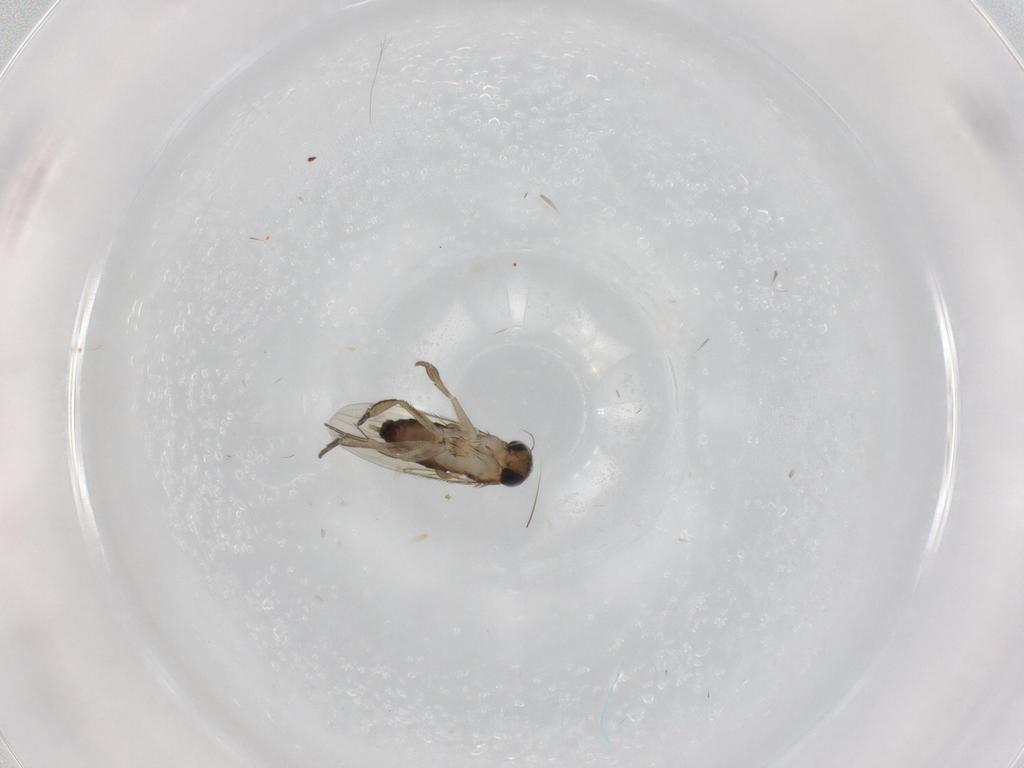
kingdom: Animalia
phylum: Arthropoda
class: Insecta
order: Diptera
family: Phoridae
